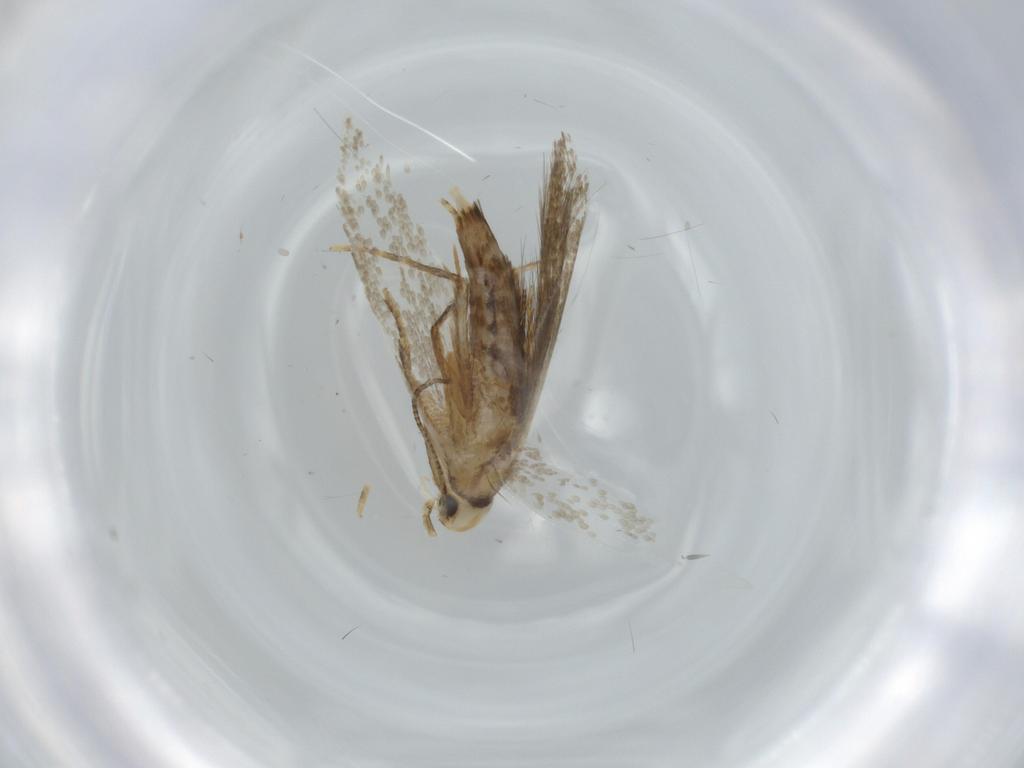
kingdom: Animalia
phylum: Arthropoda
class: Insecta
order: Lepidoptera
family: Tineidae
